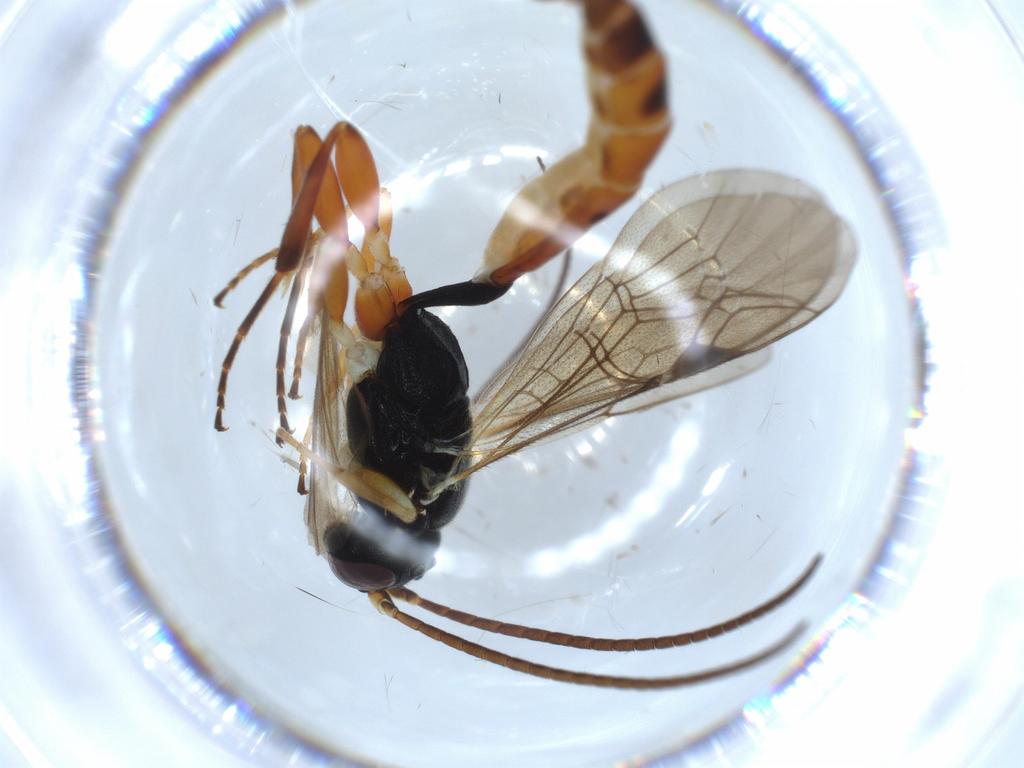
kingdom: Animalia
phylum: Arthropoda
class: Insecta
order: Hymenoptera
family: Ichneumonidae
